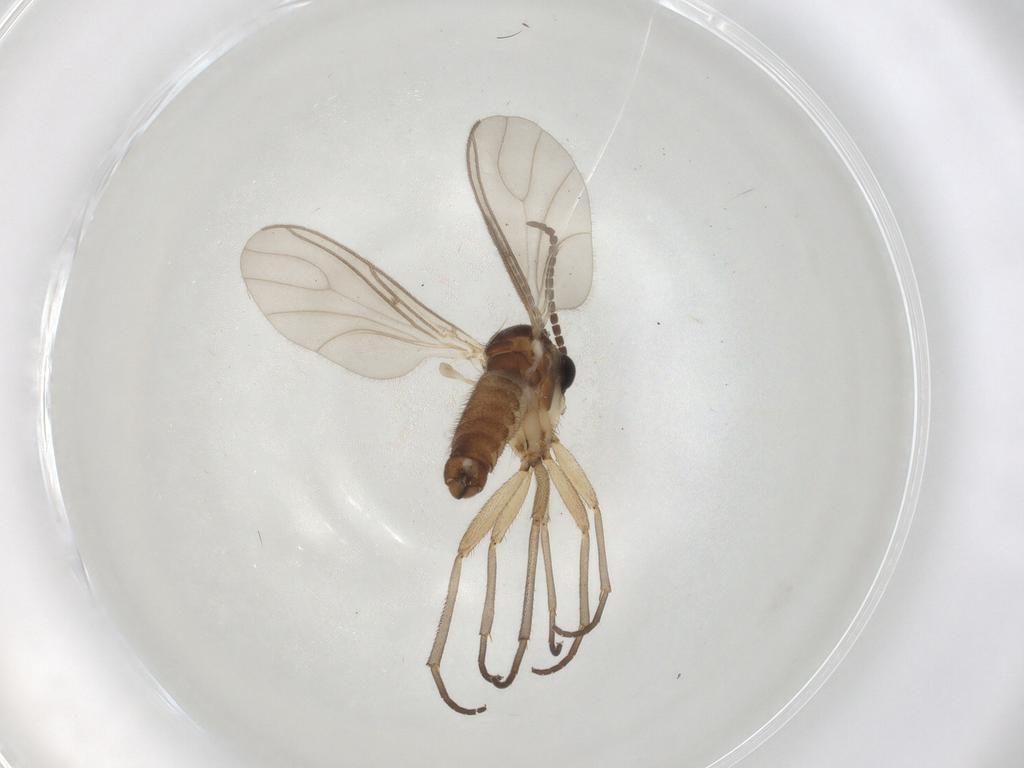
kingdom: Animalia
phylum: Arthropoda
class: Insecta
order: Diptera
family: Sciaridae
